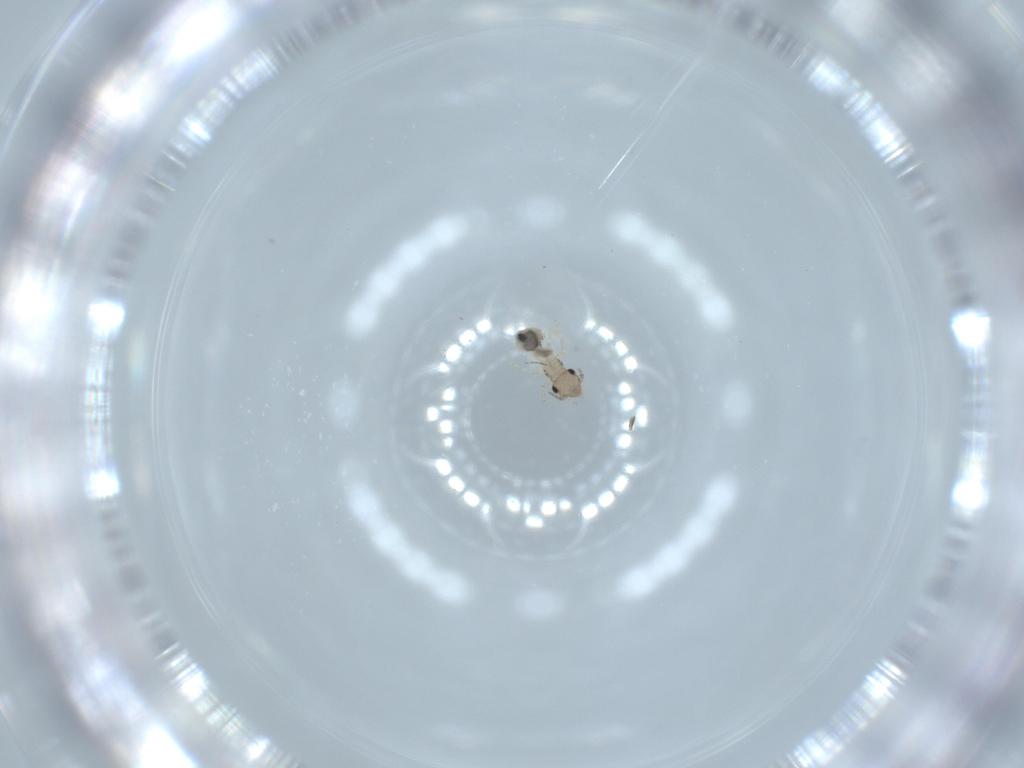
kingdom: Animalia
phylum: Arthropoda
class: Insecta
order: Psocodea
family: Lepidopsocidae
